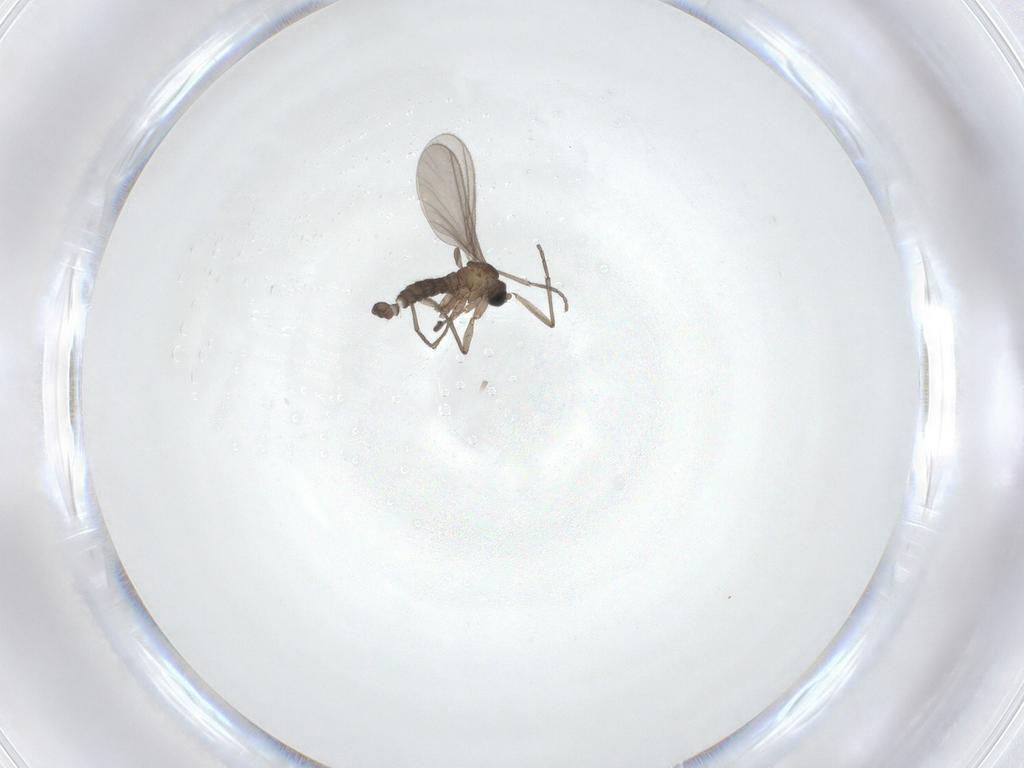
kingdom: Animalia
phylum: Arthropoda
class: Insecta
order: Diptera
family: Sciaridae
